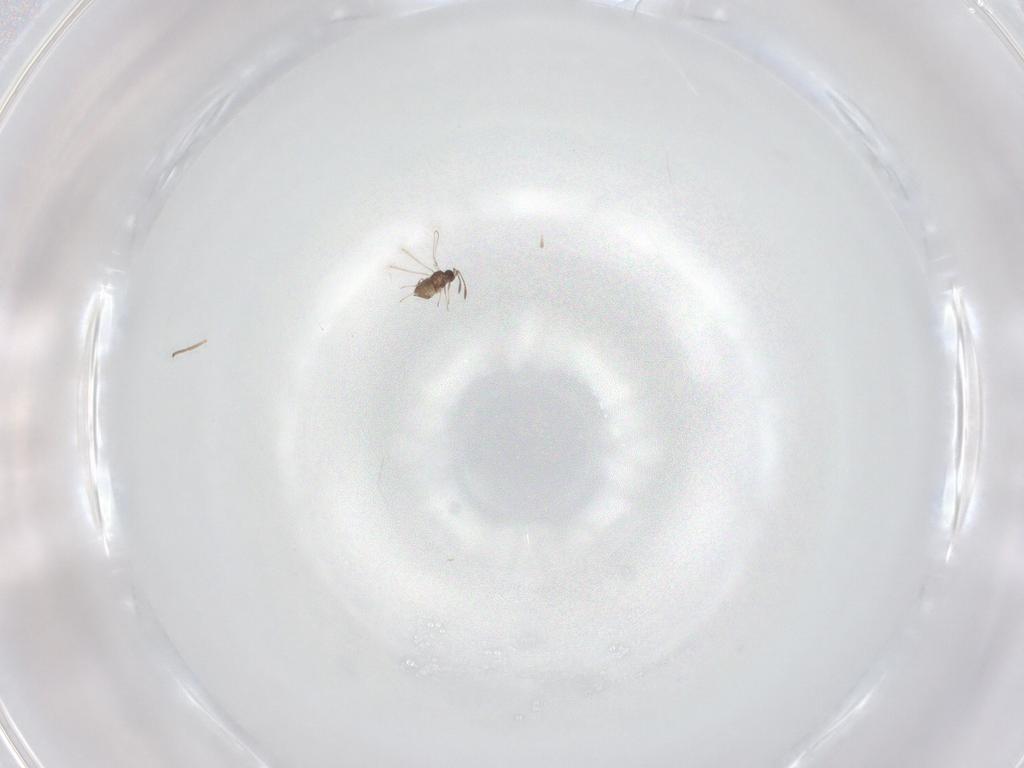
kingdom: Animalia
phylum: Arthropoda
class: Insecta
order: Hymenoptera
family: Mymaridae
